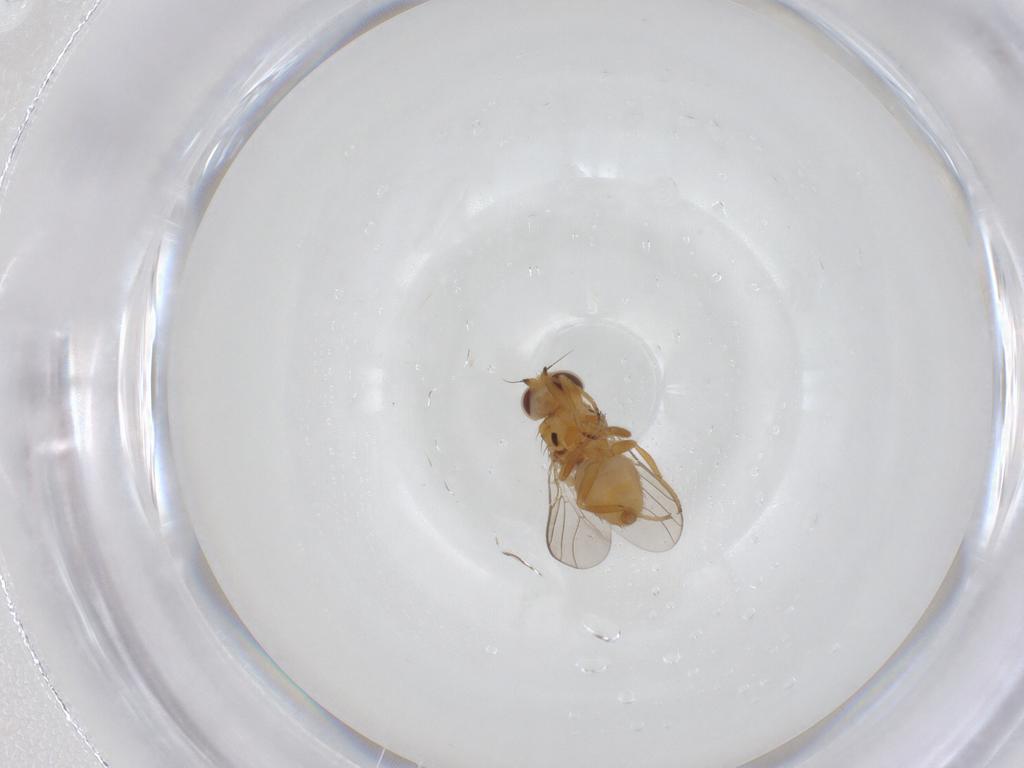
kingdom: Animalia
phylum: Arthropoda
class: Insecta
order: Diptera
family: Chloropidae
